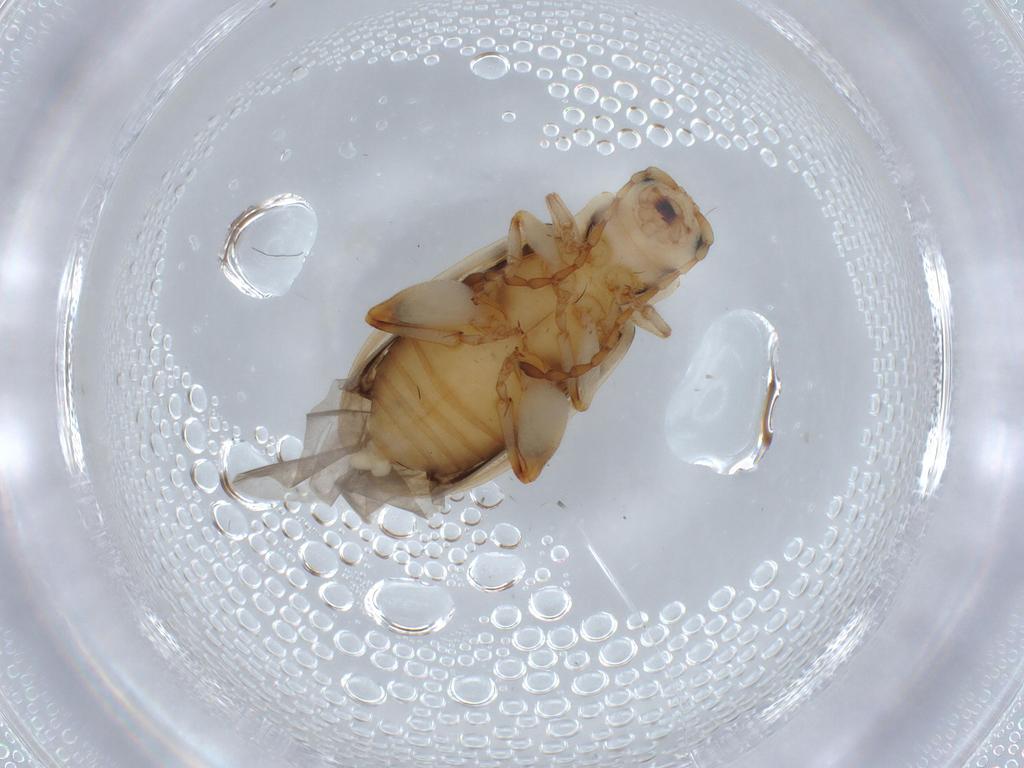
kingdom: Animalia
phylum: Arthropoda
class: Insecta
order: Coleoptera
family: Chrysomelidae
